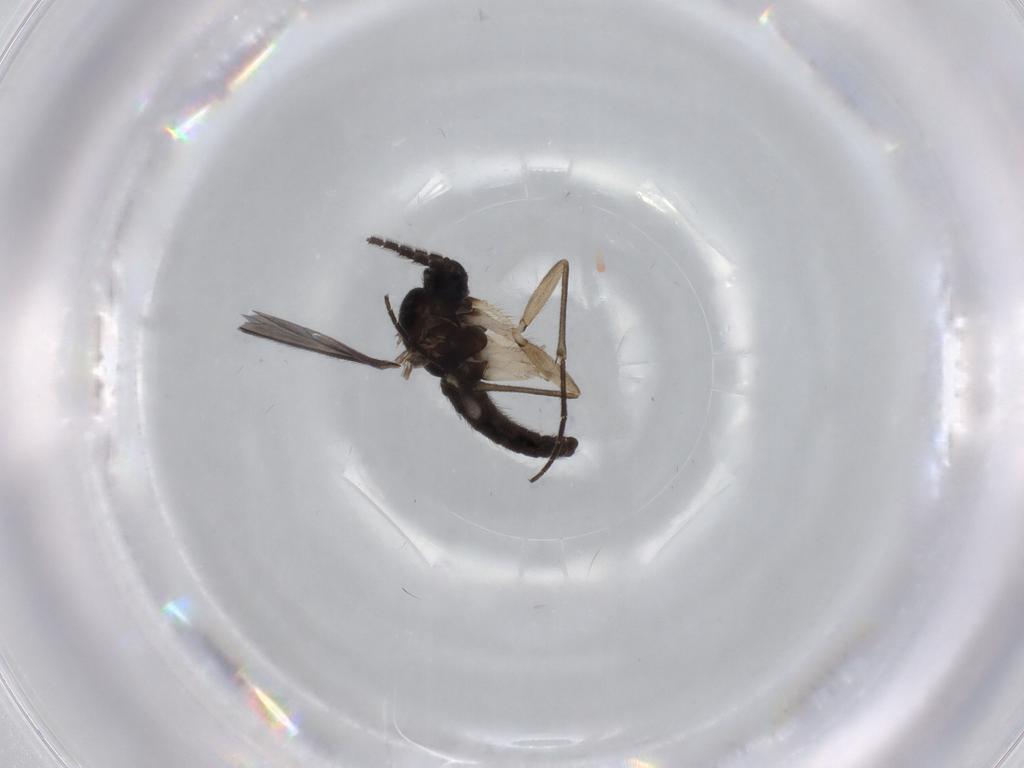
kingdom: Animalia
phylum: Arthropoda
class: Insecta
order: Diptera
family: Sciaridae
